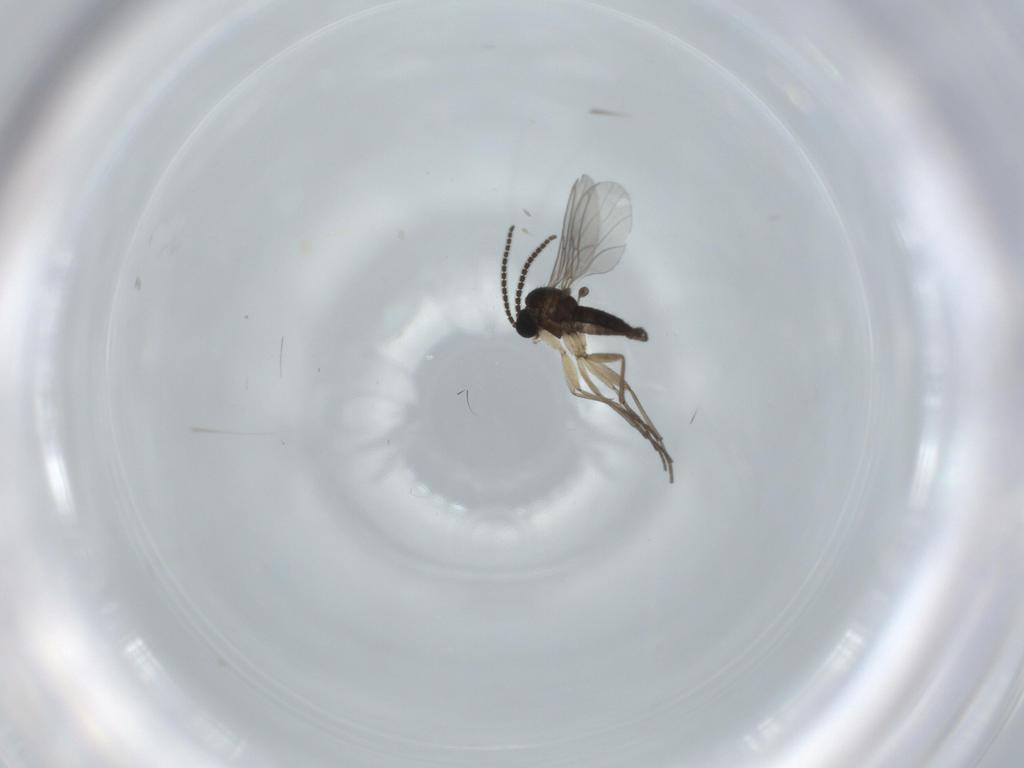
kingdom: Animalia
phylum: Arthropoda
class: Insecta
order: Diptera
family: Sciaridae
